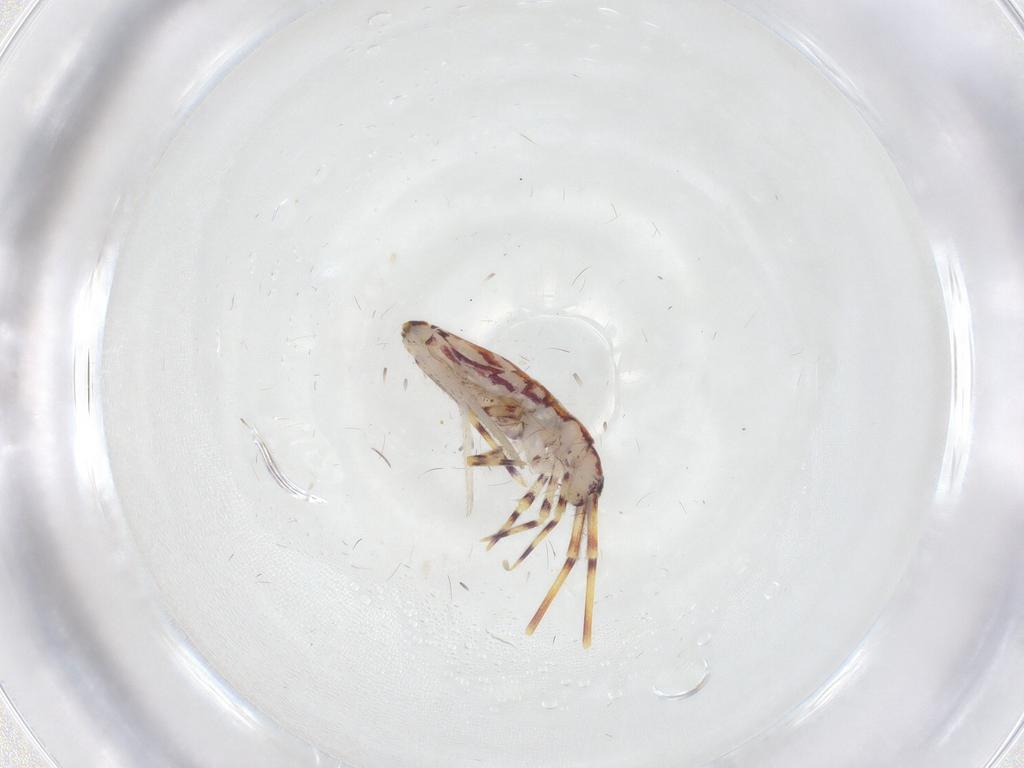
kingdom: Animalia
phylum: Arthropoda
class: Collembola
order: Entomobryomorpha
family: Entomobryidae
